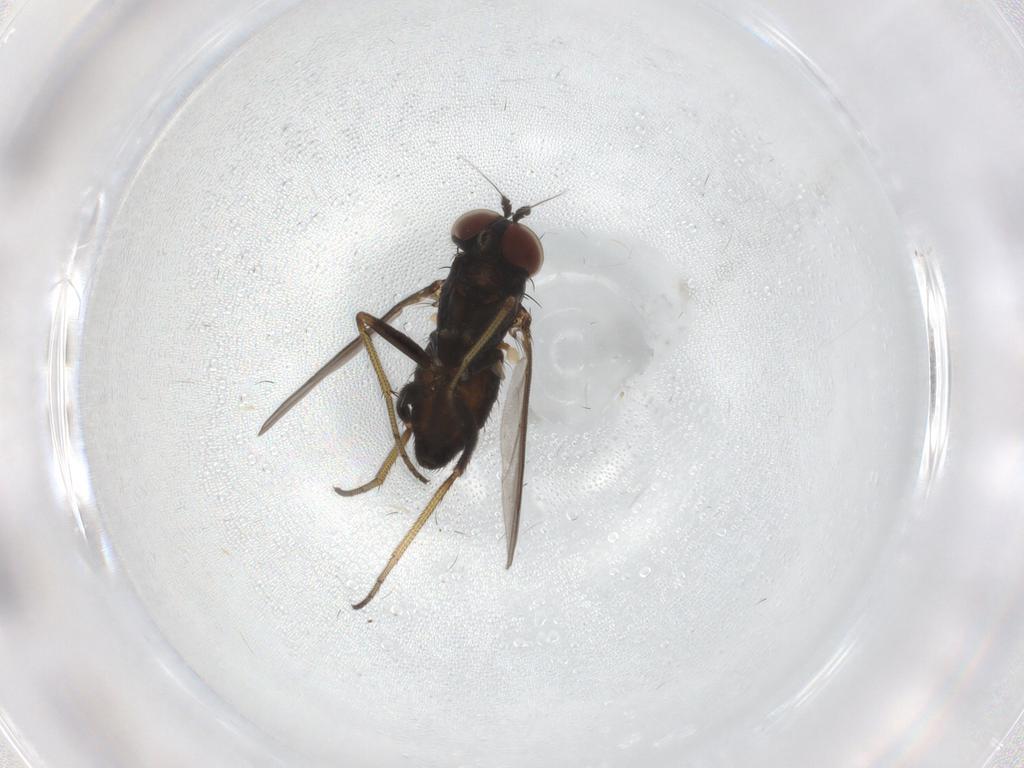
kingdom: Animalia
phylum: Arthropoda
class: Insecta
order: Diptera
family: Dolichopodidae
